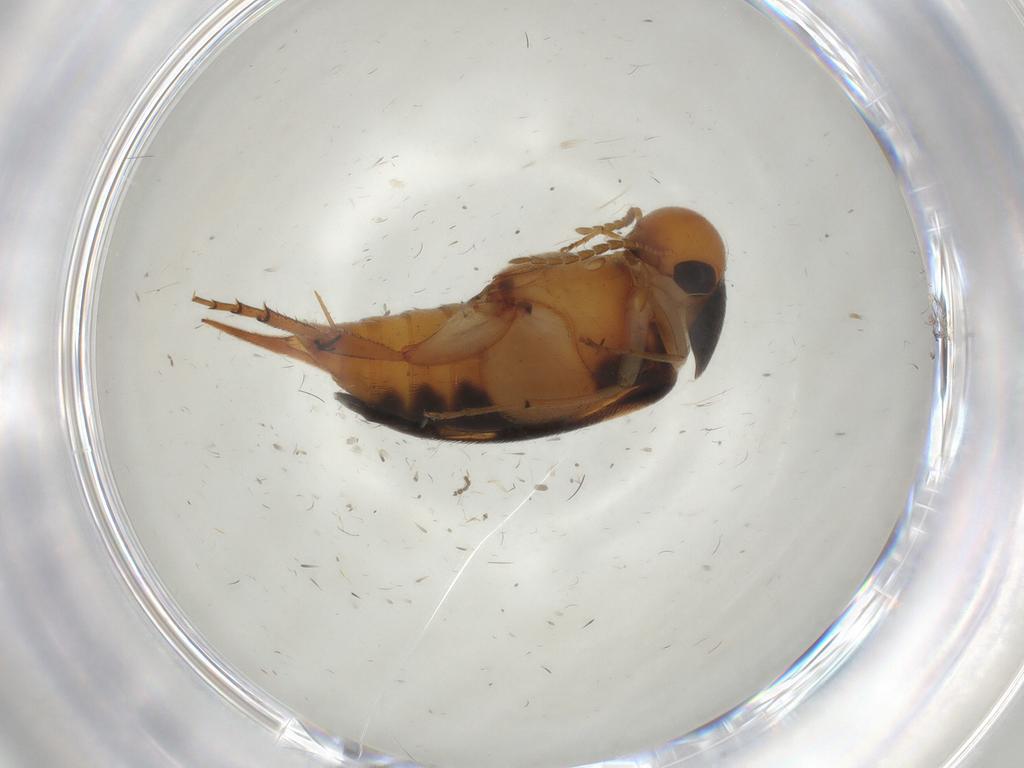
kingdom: Animalia
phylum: Arthropoda
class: Insecta
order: Coleoptera
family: Mordellidae
